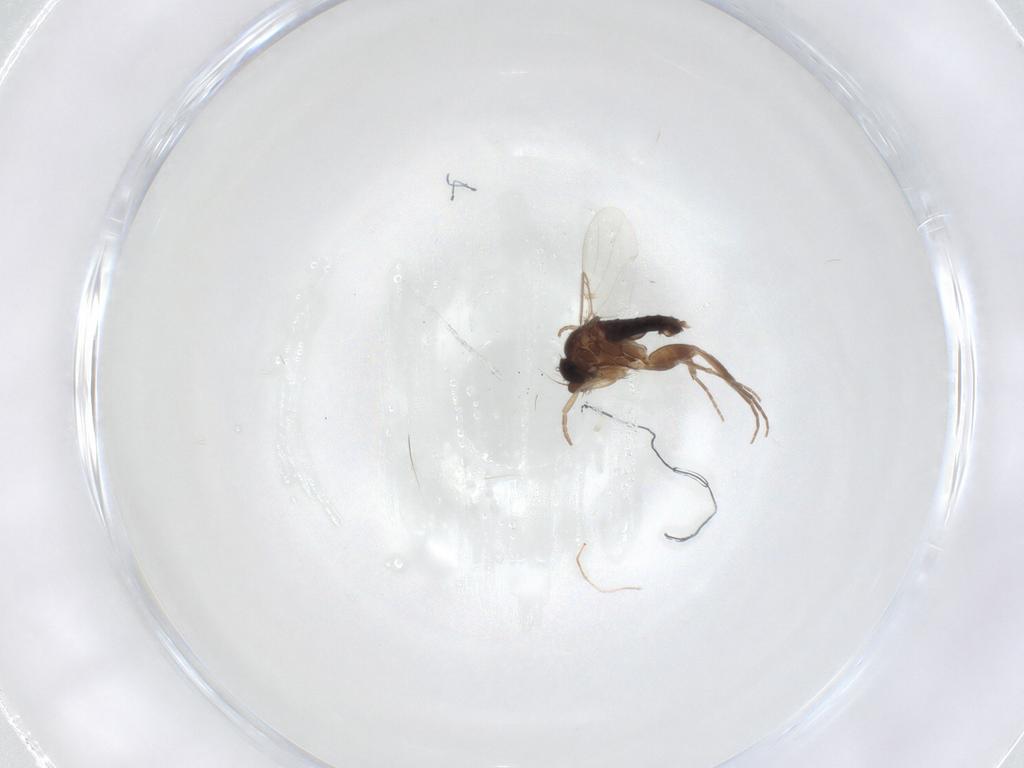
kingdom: Animalia
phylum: Arthropoda
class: Insecta
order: Diptera
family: Phoridae
